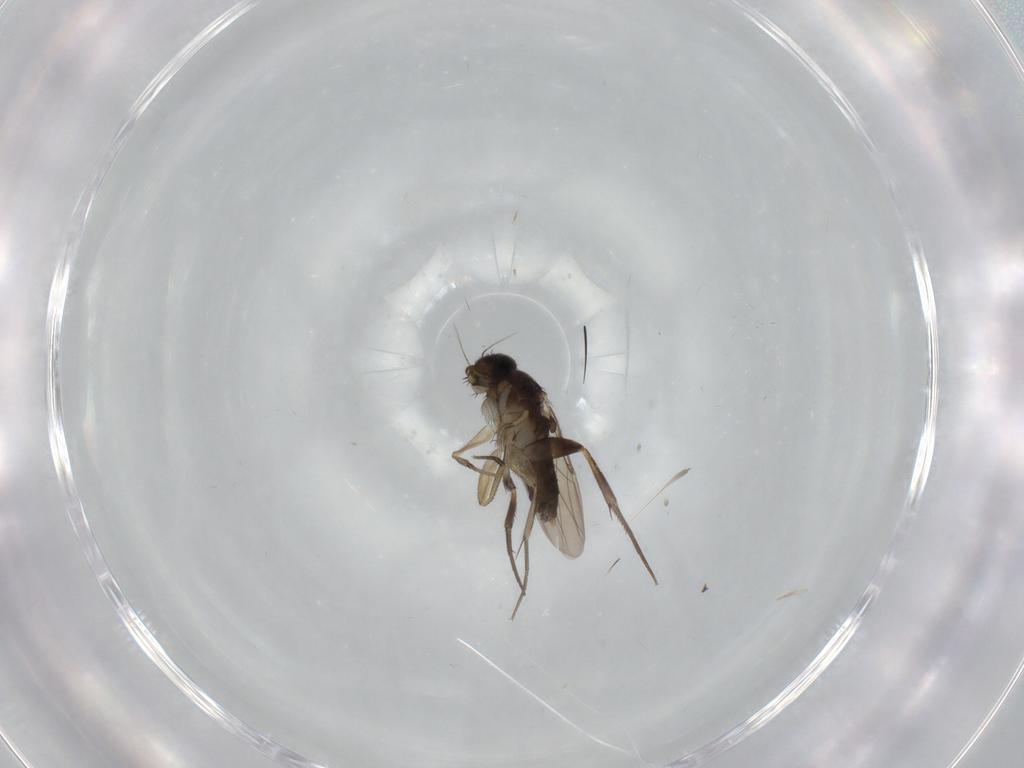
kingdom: Animalia
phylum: Arthropoda
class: Insecta
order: Diptera
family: Phoridae
